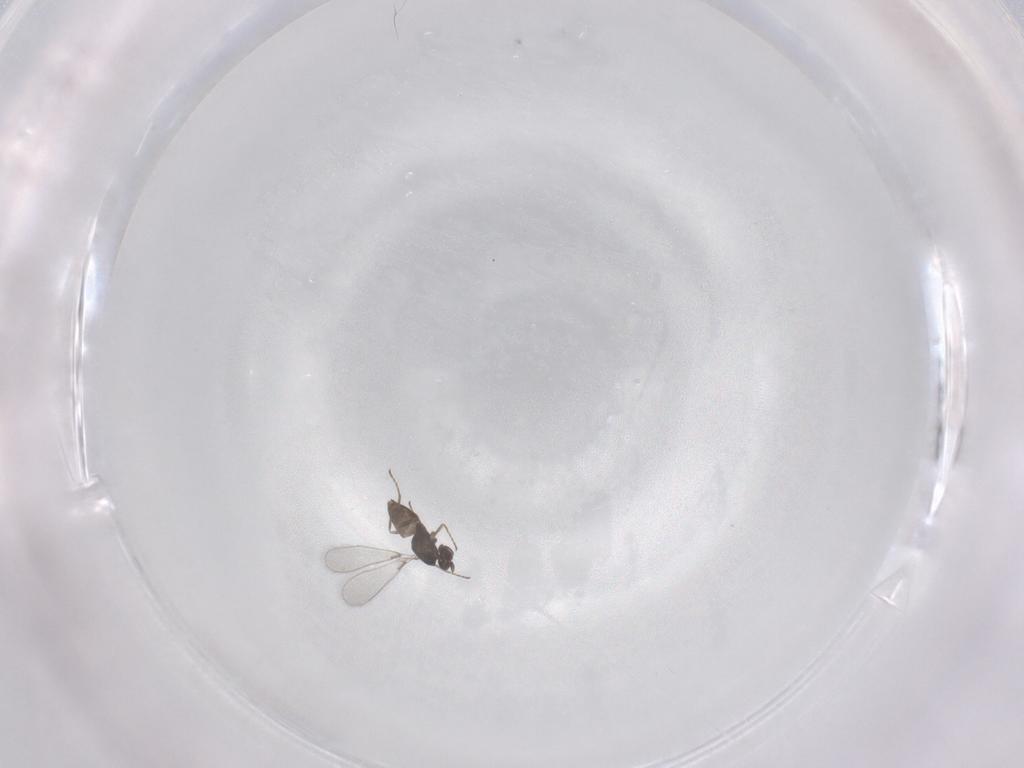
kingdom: Animalia
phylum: Arthropoda
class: Insecta
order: Hymenoptera
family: Mymaridae
